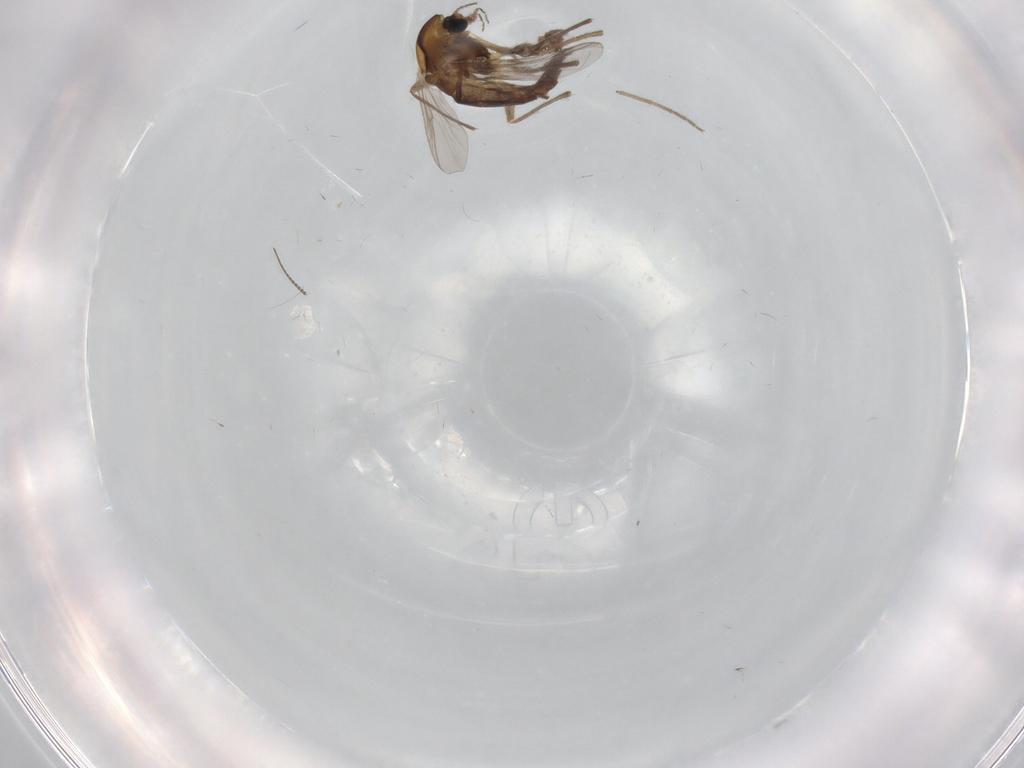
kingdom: Animalia
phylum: Arthropoda
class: Insecta
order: Diptera
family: Chironomidae
